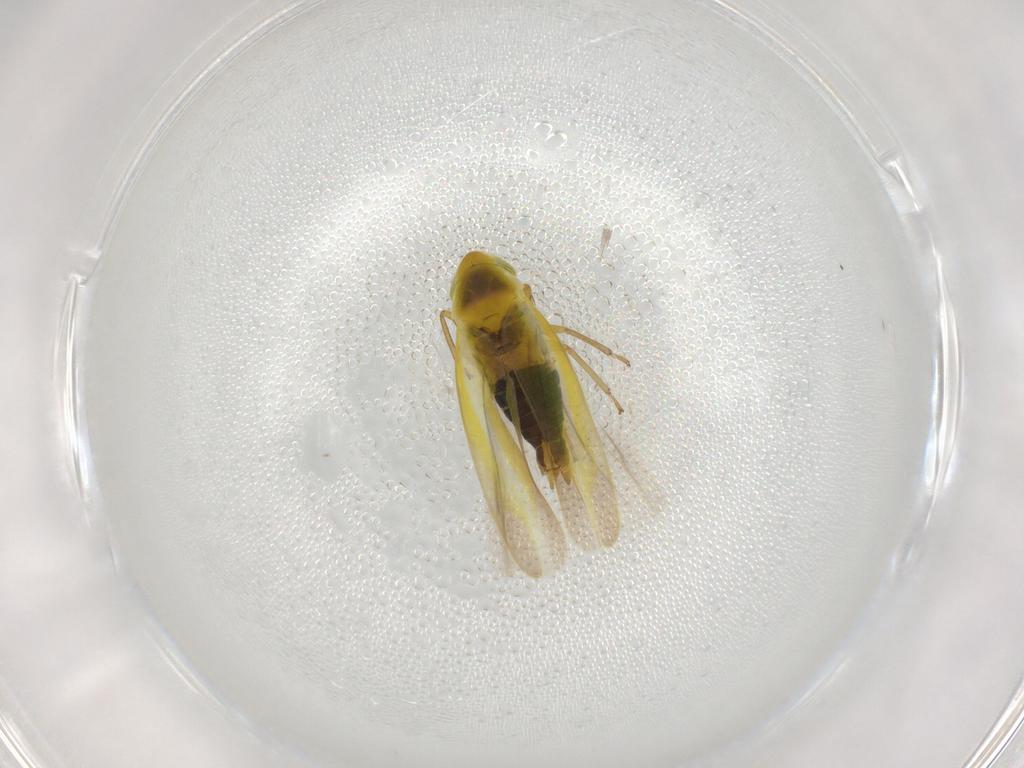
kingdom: Animalia
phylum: Arthropoda
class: Insecta
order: Hemiptera
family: Cicadellidae
